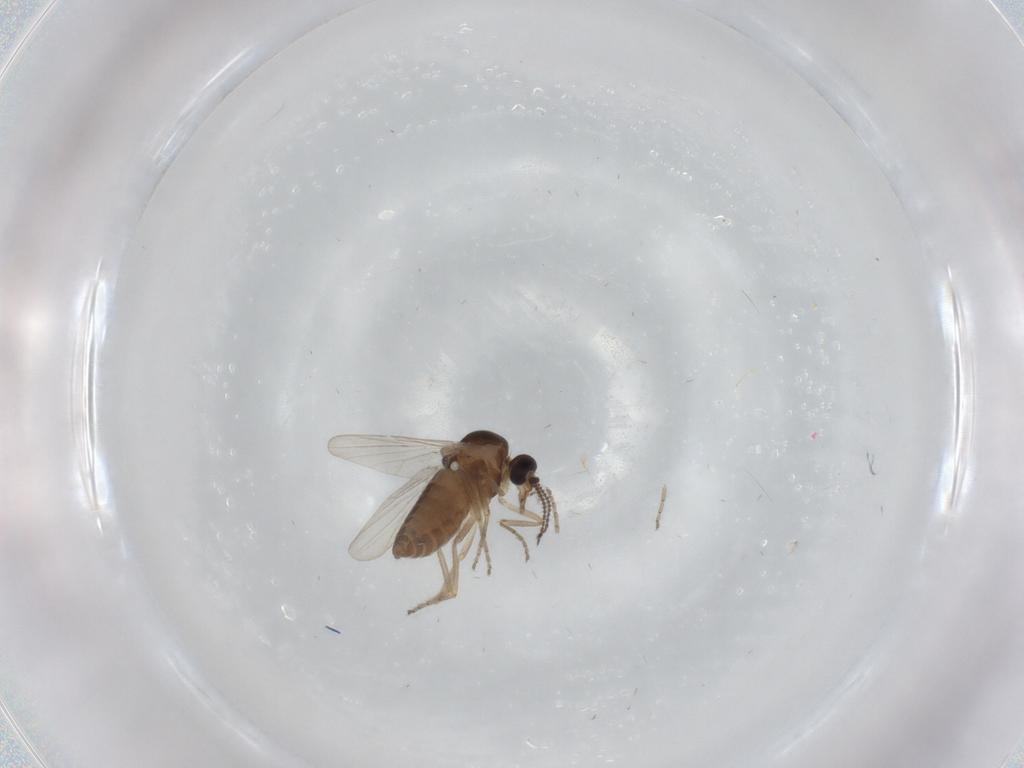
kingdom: Animalia
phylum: Arthropoda
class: Insecta
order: Diptera
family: Ceratopogonidae
